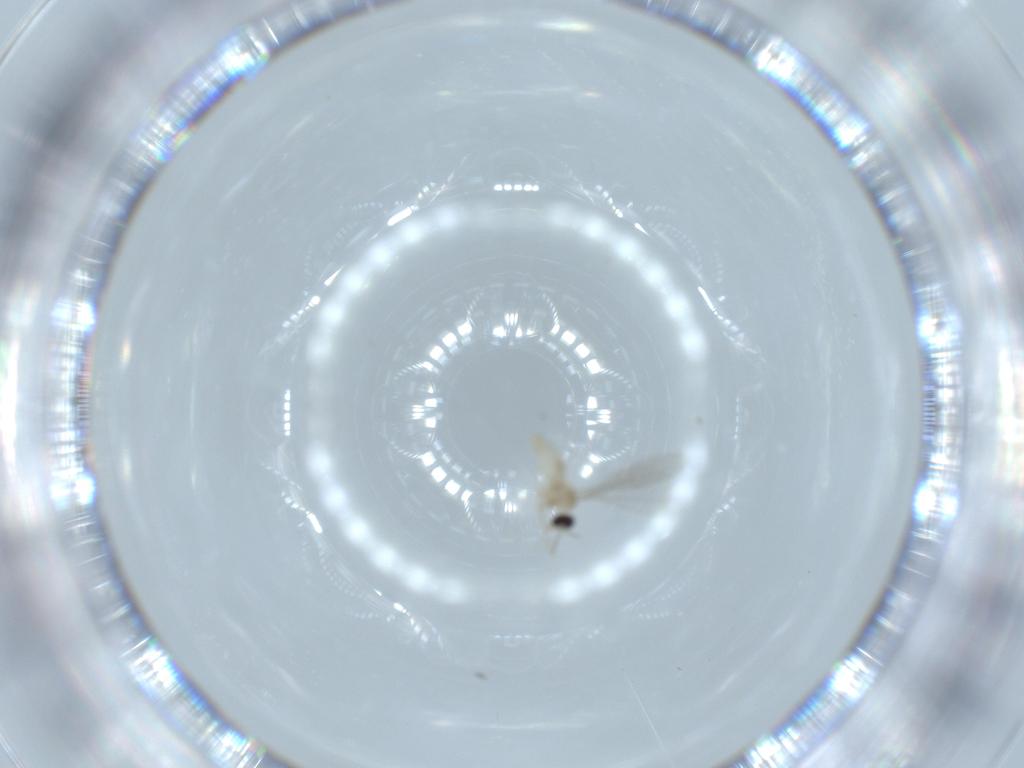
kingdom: Animalia
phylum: Arthropoda
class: Insecta
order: Diptera
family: Cecidomyiidae
